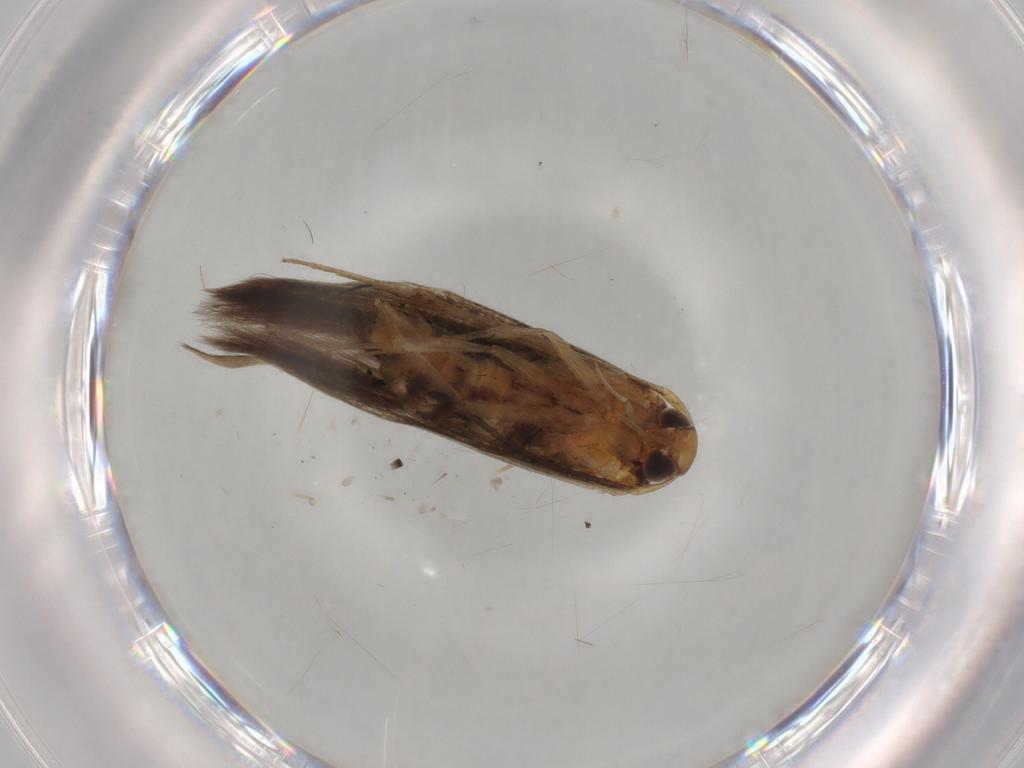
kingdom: Animalia
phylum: Arthropoda
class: Insecta
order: Lepidoptera
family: Cosmopterigidae
